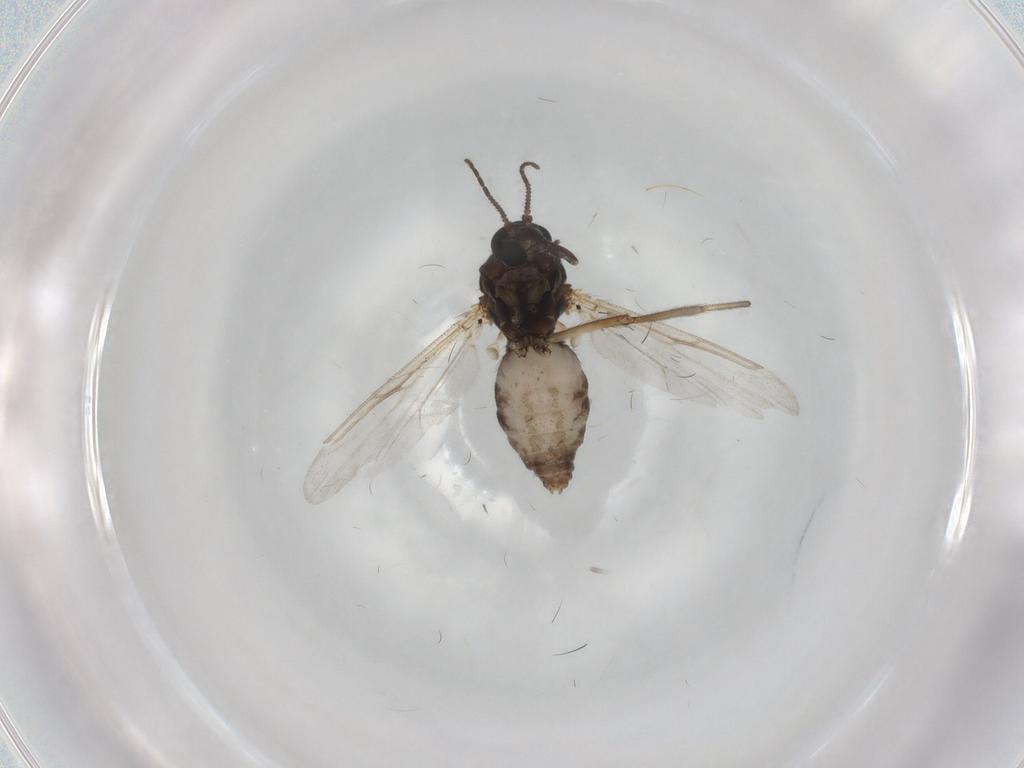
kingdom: Animalia
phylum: Arthropoda
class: Insecta
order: Diptera
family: Ceratopogonidae
